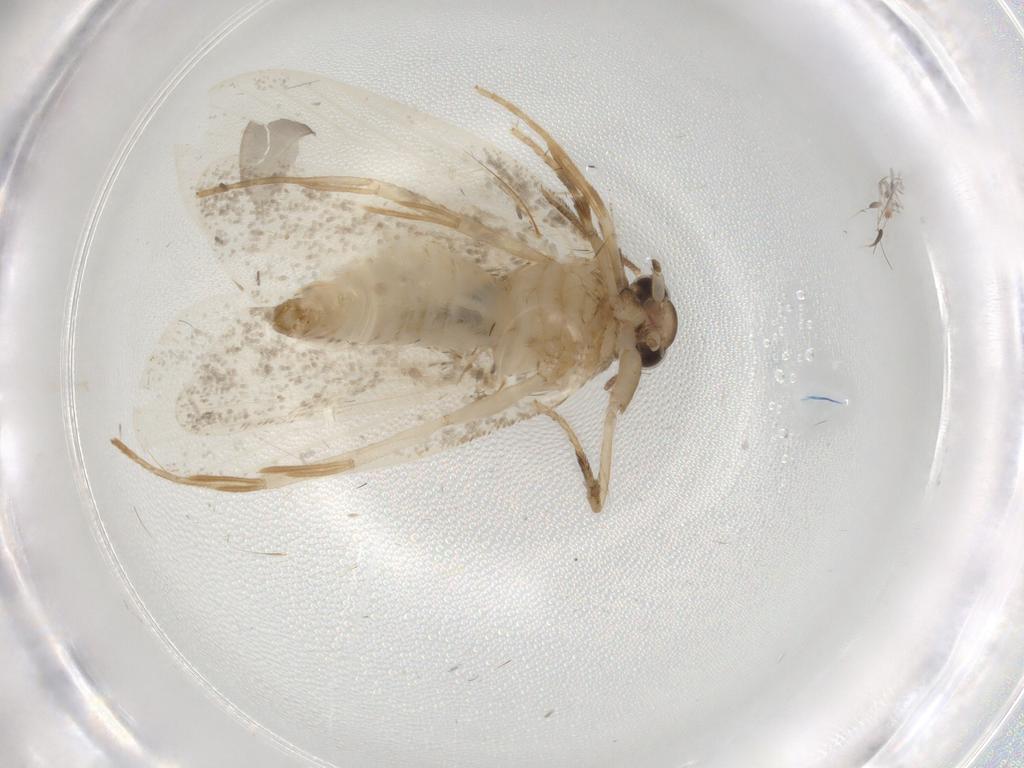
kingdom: Animalia
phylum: Arthropoda
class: Insecta
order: Lepidoptera
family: Psychidae
